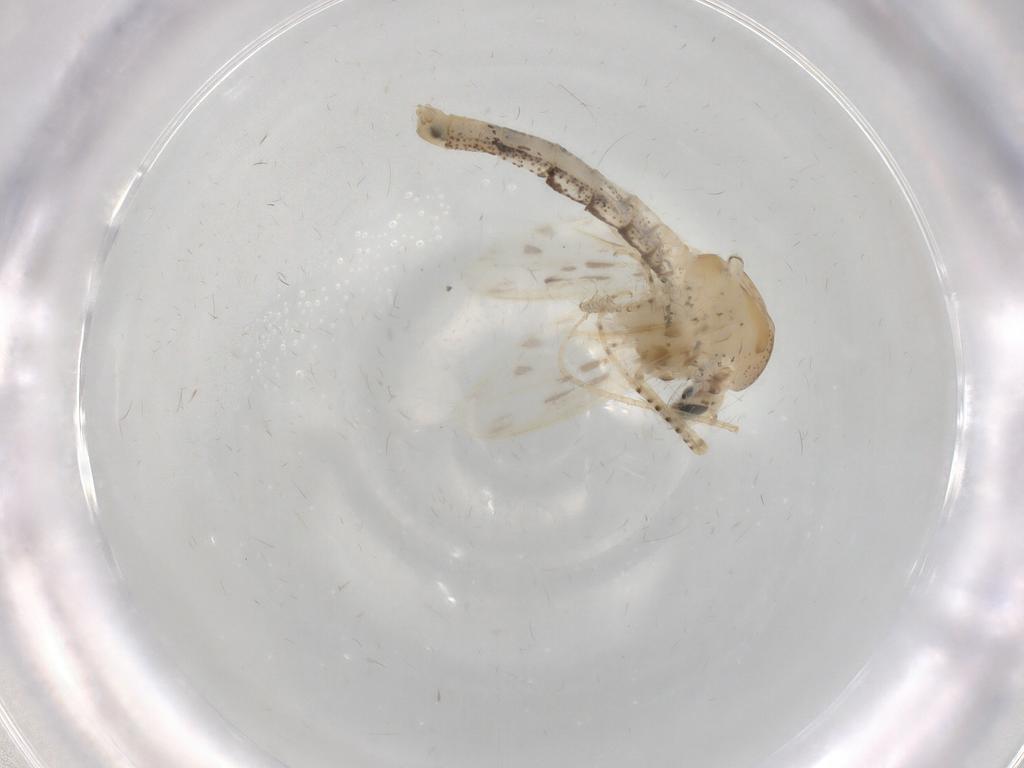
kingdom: Animalia
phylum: Arthropoda
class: Insecta
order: Diptera
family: Chaoboridae
